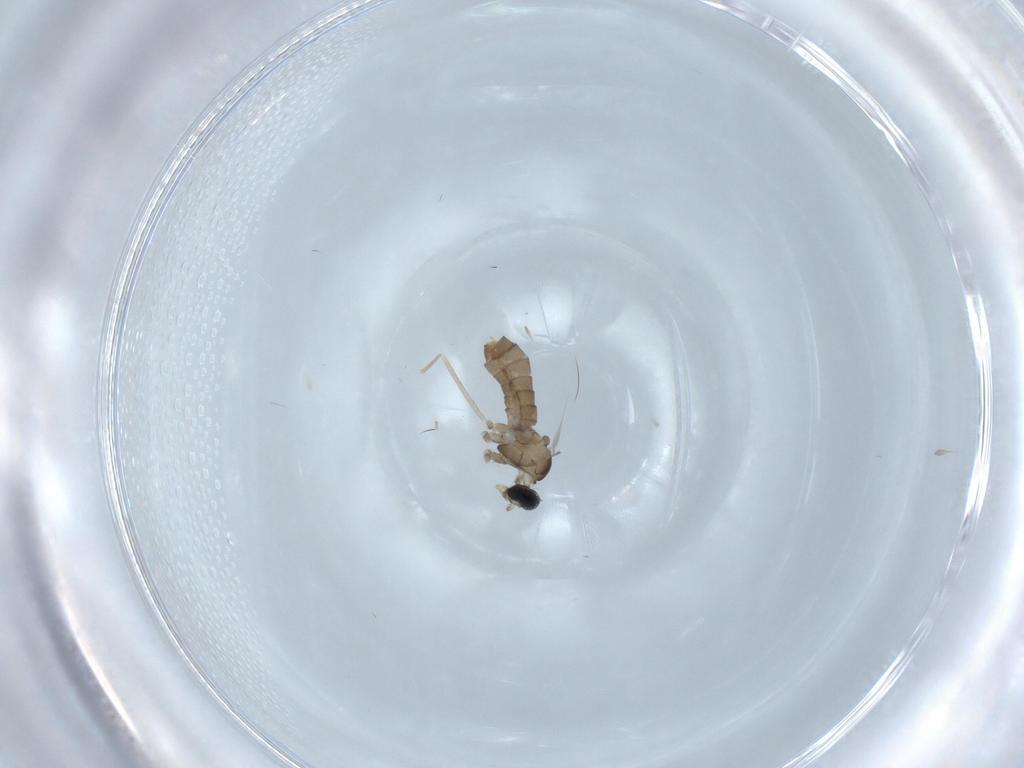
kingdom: Animalia
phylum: Arthropoda
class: Insecta
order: Diptera
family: Cecidomyiidae
